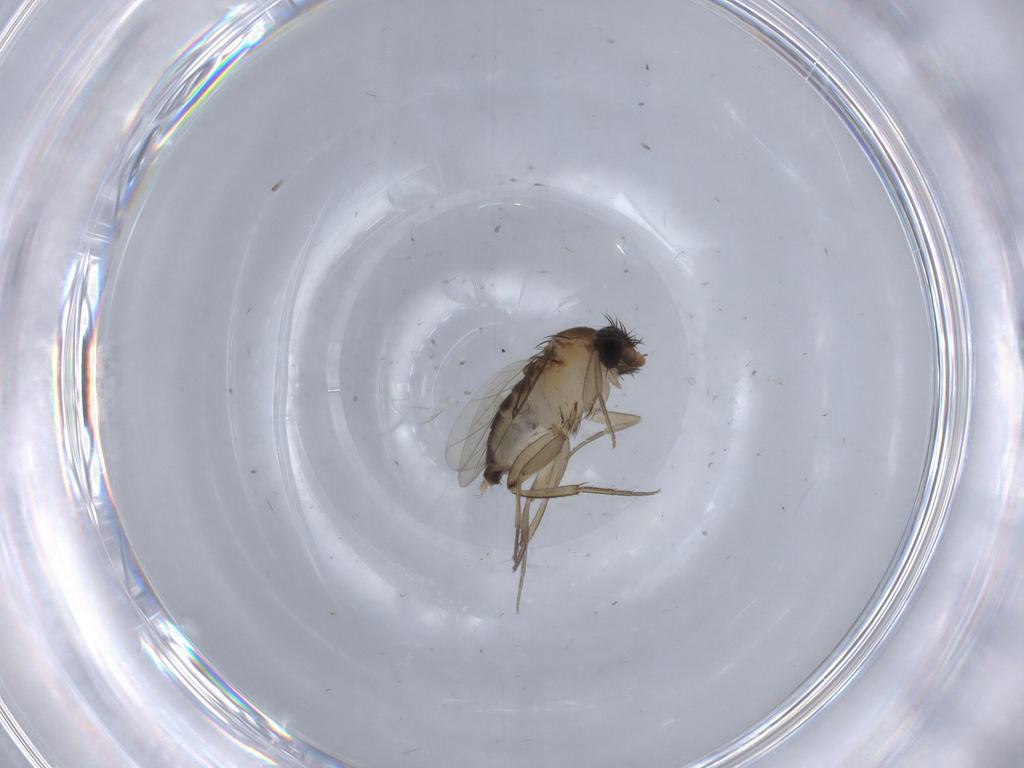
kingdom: Animalia
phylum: Arthropoda
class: Insecta
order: Diptera
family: Phoridae
